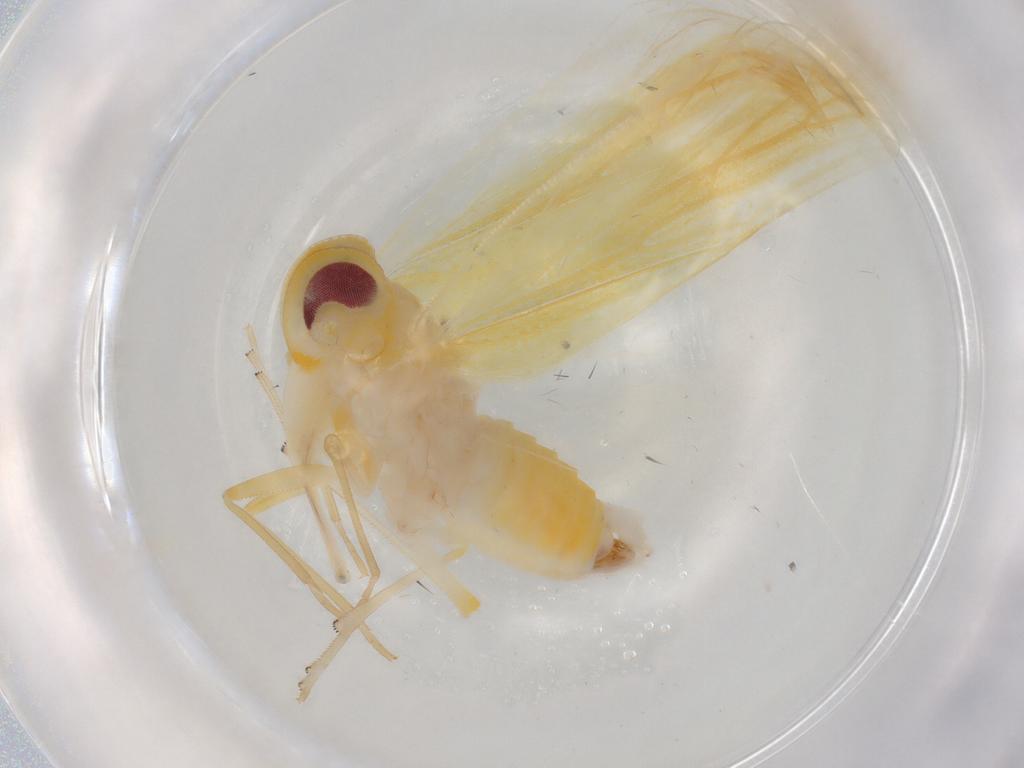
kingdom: Animalia
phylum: Arthropoda
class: Insecta
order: Hemiptera
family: Derbidae
